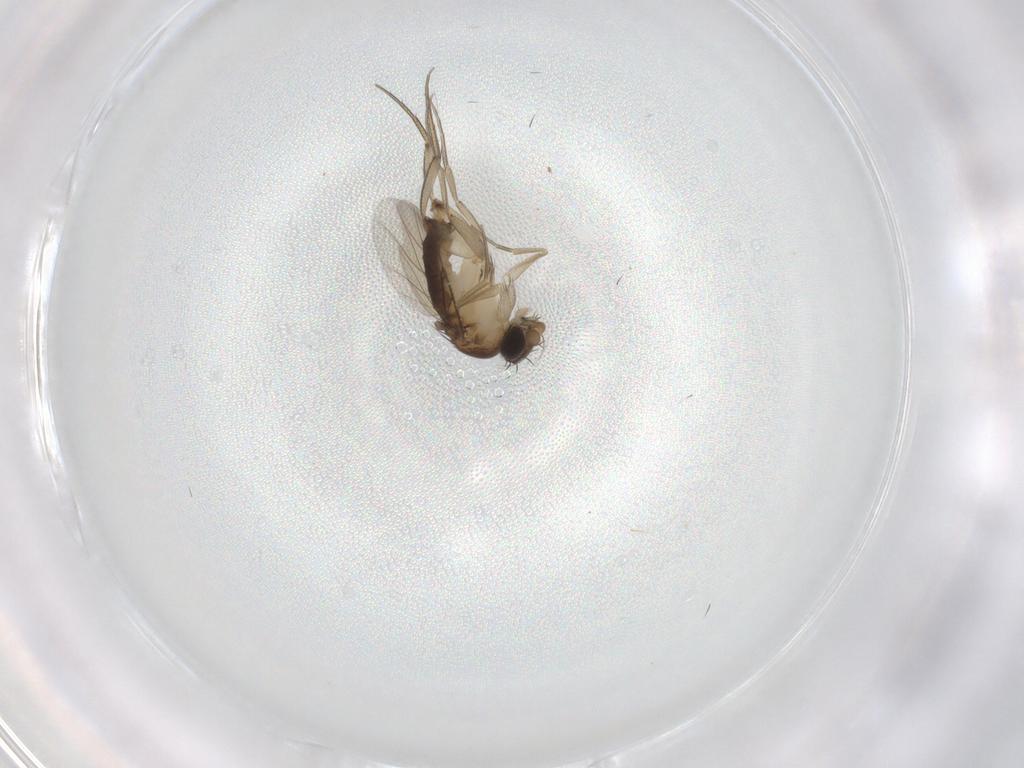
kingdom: Animalia
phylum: Arthropoda
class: Insecta
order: Diptera
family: Phoridae
